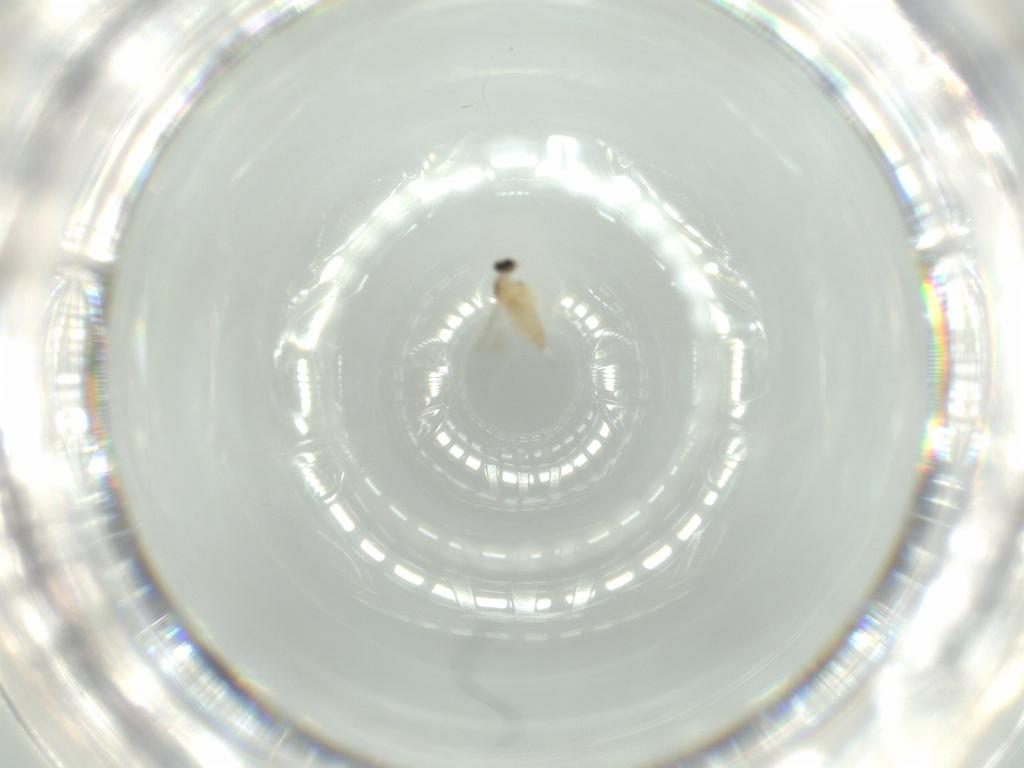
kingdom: Animalia
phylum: Arthropoda
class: Insecta
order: Diptera
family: Cecidomyiidae
